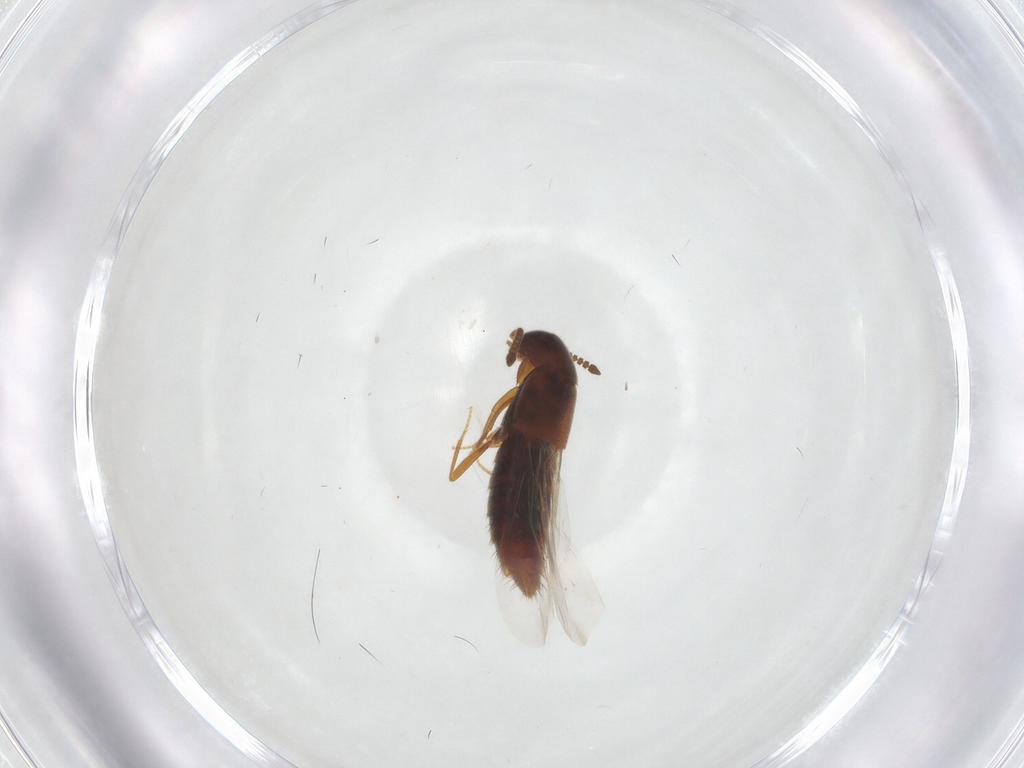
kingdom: Animalia
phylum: Arthropoda
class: Insecta
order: Coleoptera
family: Staphylinidae
